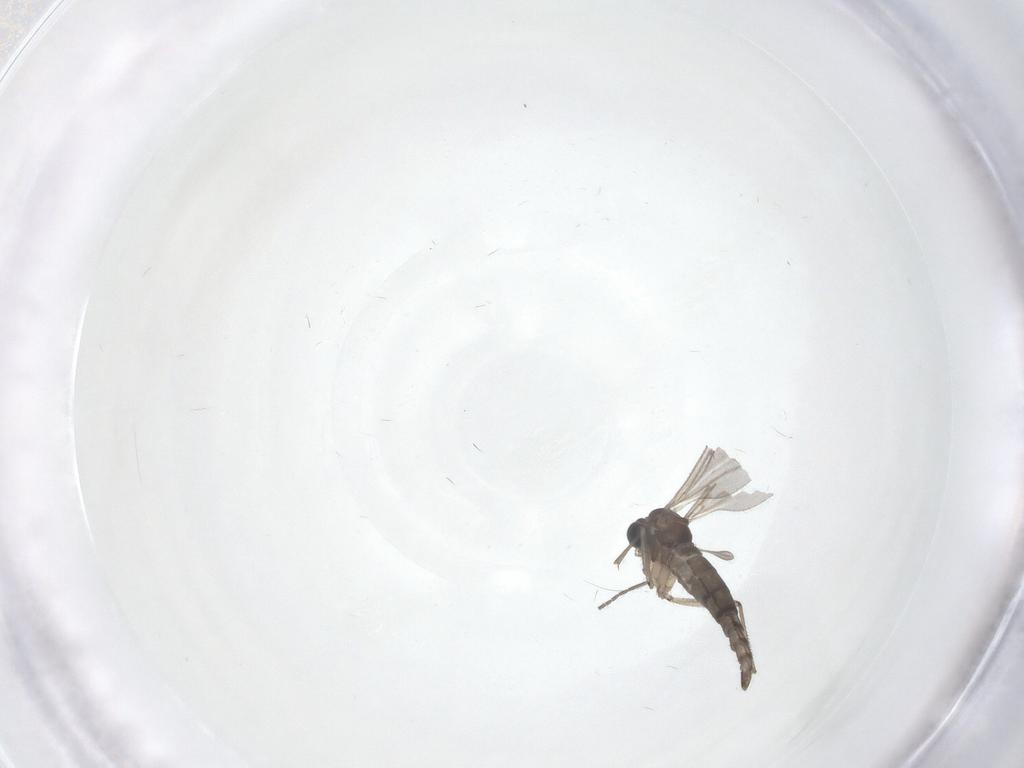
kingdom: Animalia
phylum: Arthropoda
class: Insecta
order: Diptera
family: Sciaridae
